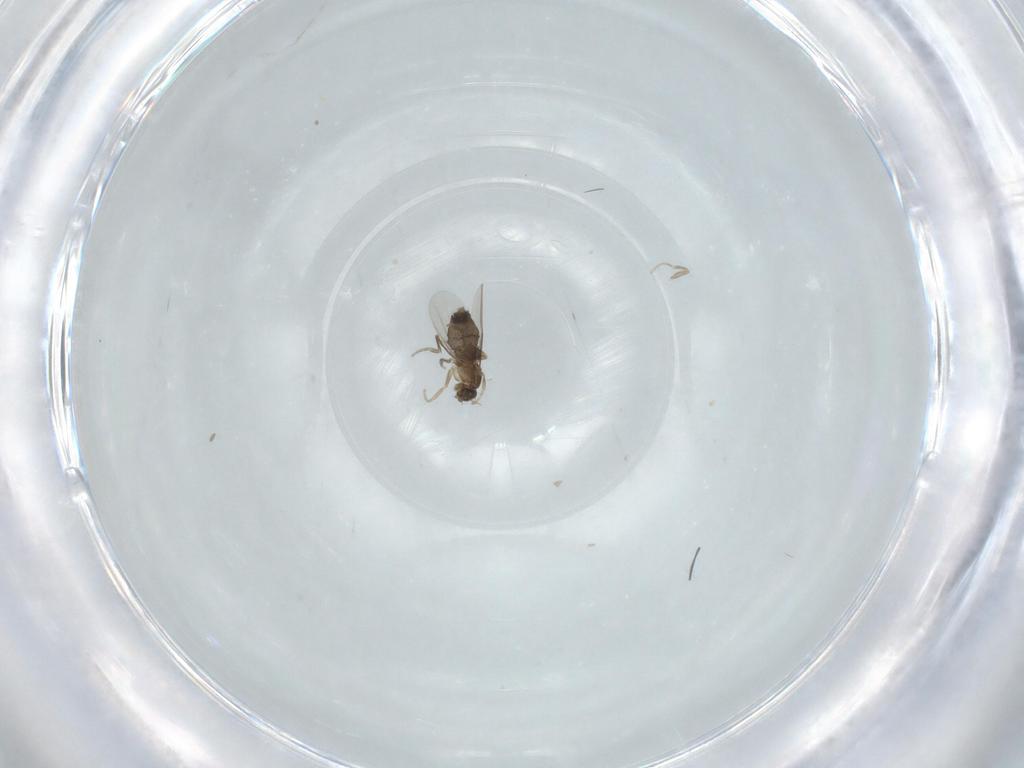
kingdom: Animalia
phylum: Arthropoda
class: Insecta
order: Diptera
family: Phoridae
